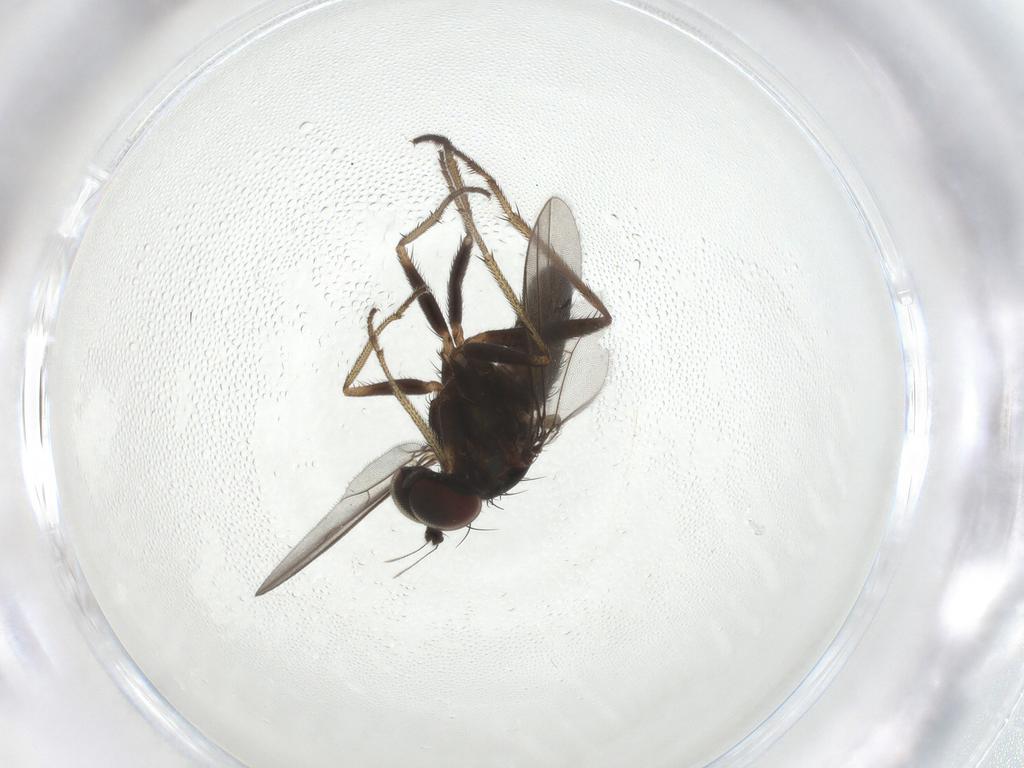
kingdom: Animalia
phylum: Arthropoda
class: Insecta
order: Diptera
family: Dolichopodidae
